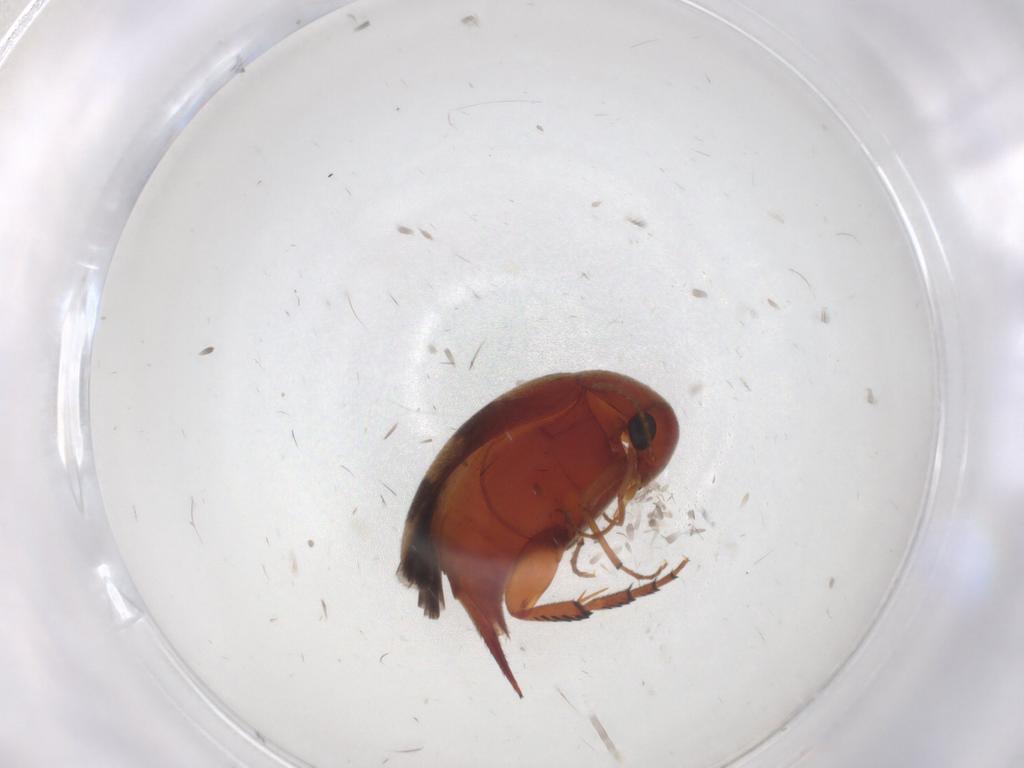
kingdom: Animalia
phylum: Arthropoda
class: Insecta
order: Coleoptera
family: Mordellidae
